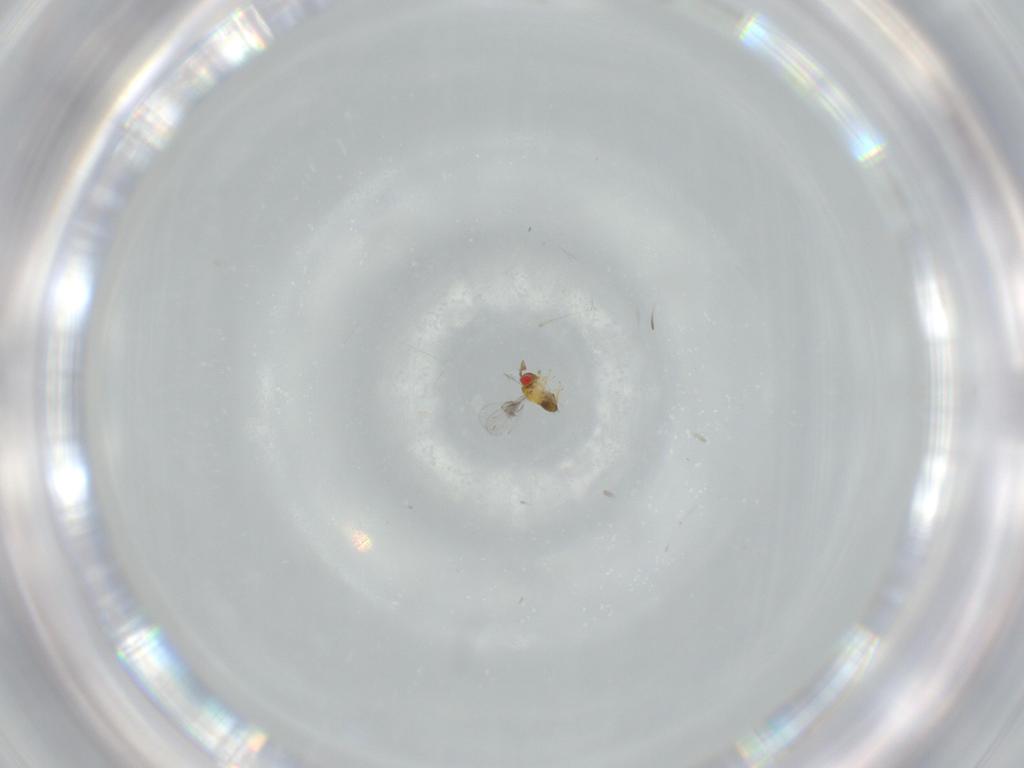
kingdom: Animalia
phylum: Arthropoda
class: Insecta
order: Hymenoptera
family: Trichogrammatidae
